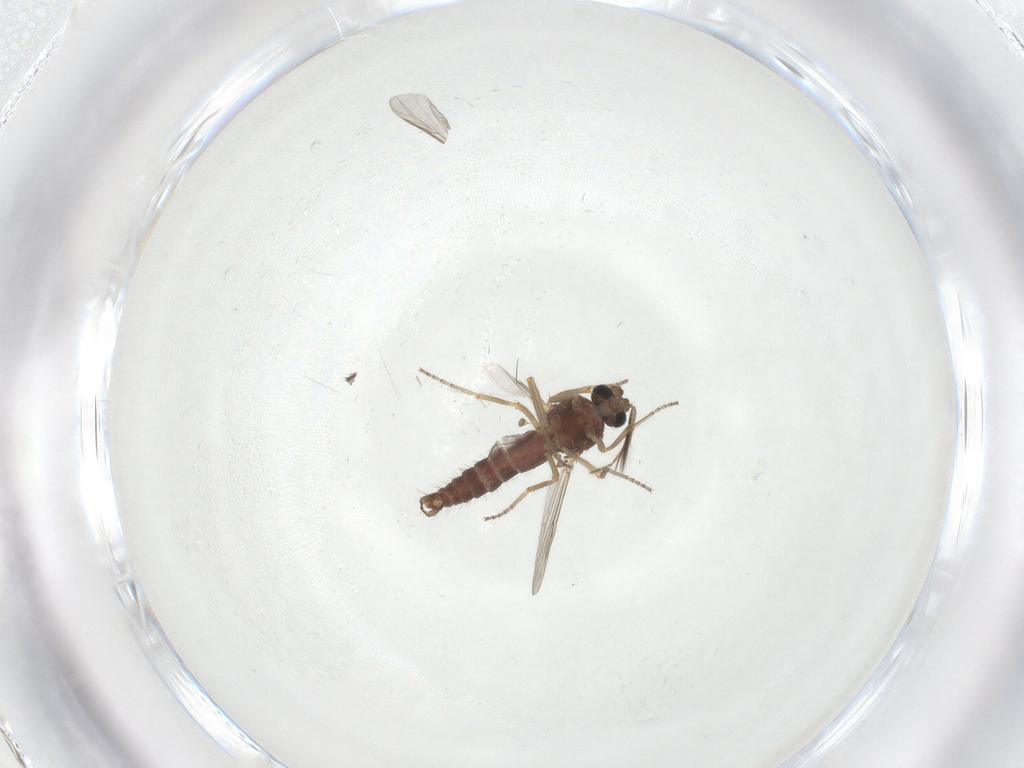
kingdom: Animalia
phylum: Arthropoda
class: Insecta
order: Diptera
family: Ceratopogonidae
